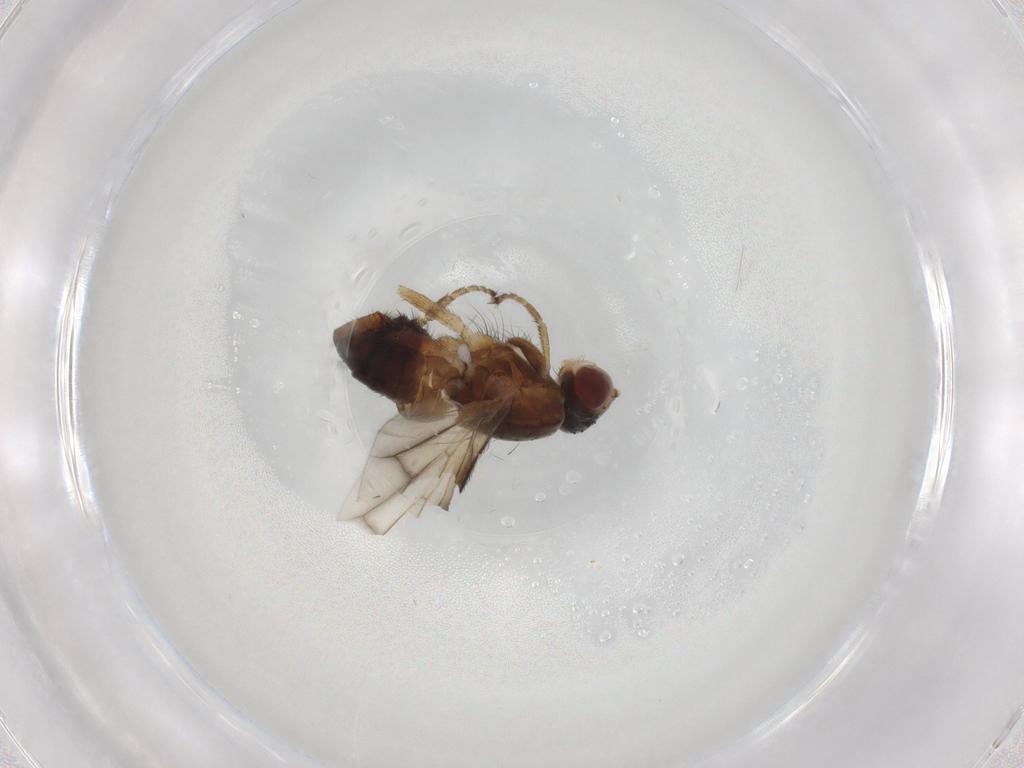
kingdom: Animalia
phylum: Arthropoda
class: Insecta
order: Diptera
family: Heleomyzidae
